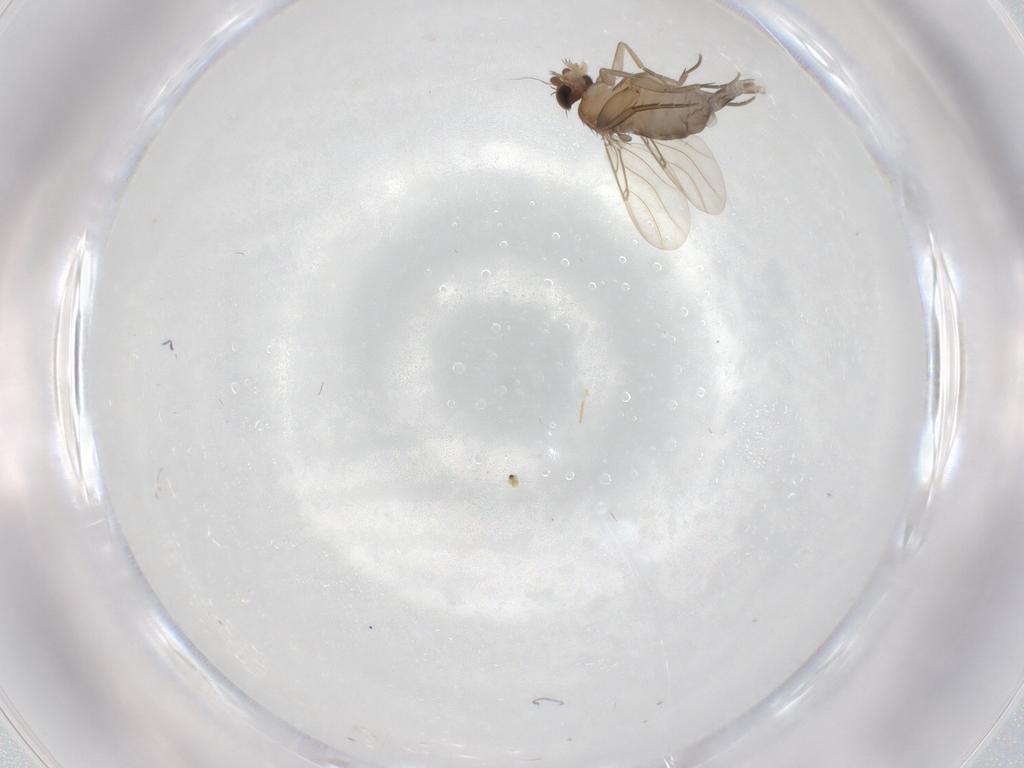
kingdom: Animalia
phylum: Arthropoda
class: Insecta
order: Diptera
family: Phoridae
